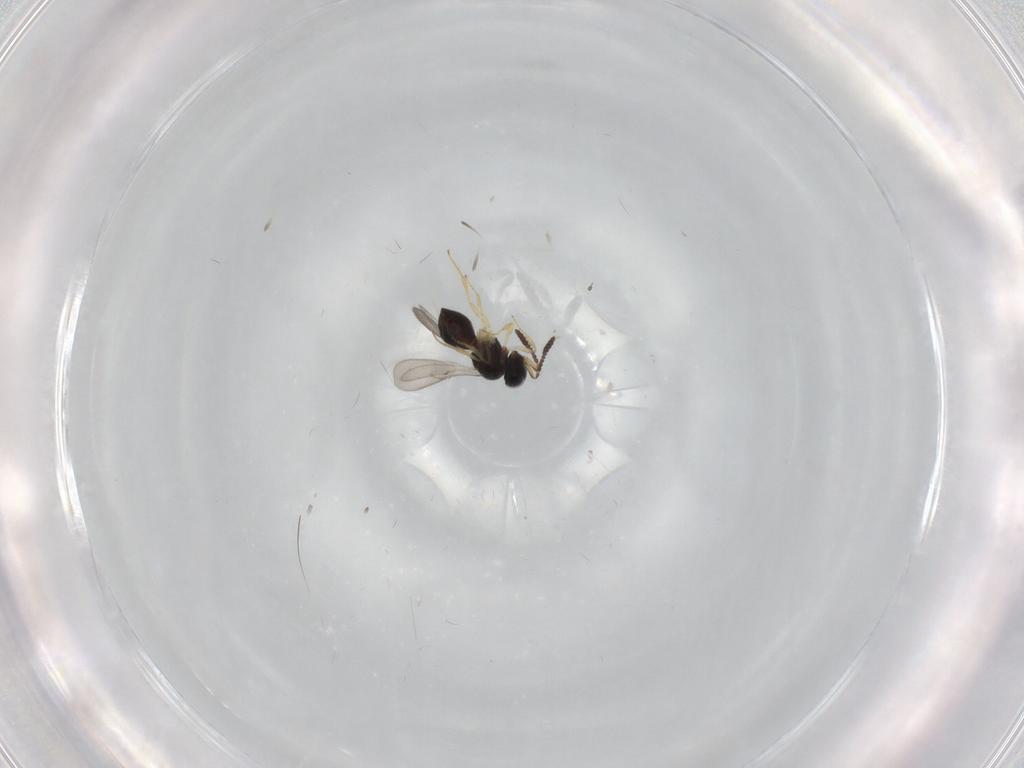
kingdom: Animalia
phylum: Arthropoda
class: Insecta
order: Hymenoptera
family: Scelionidae
